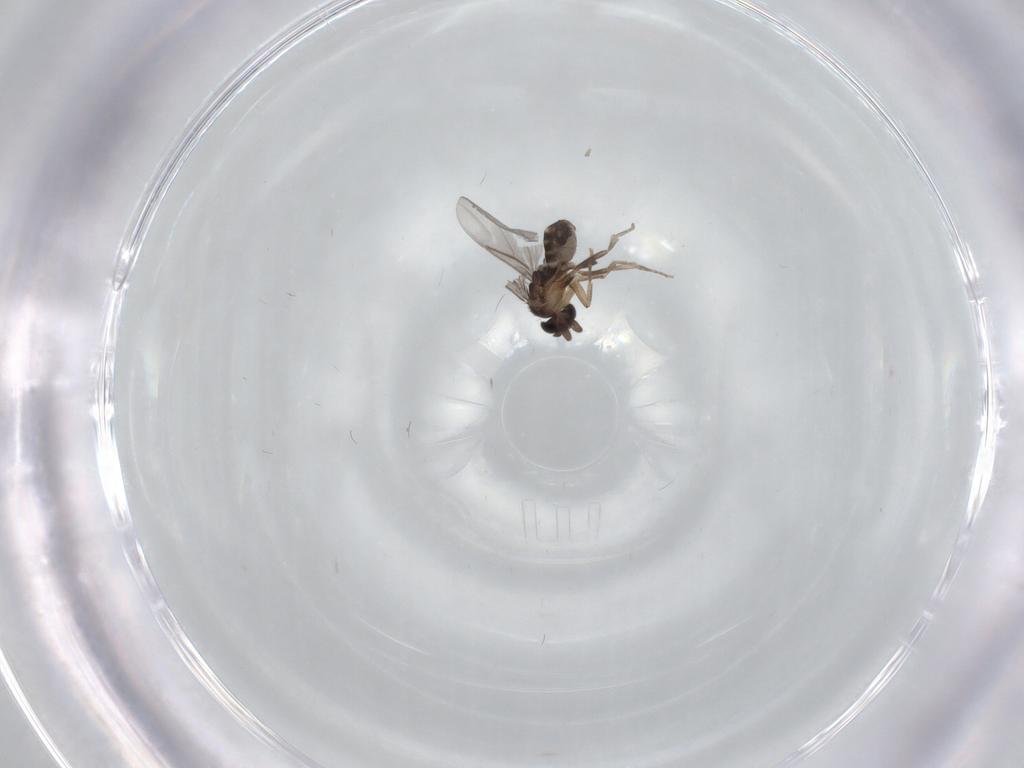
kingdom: Animalia
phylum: Arthropoda
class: Insecta
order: Diptera
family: Limoniidae
